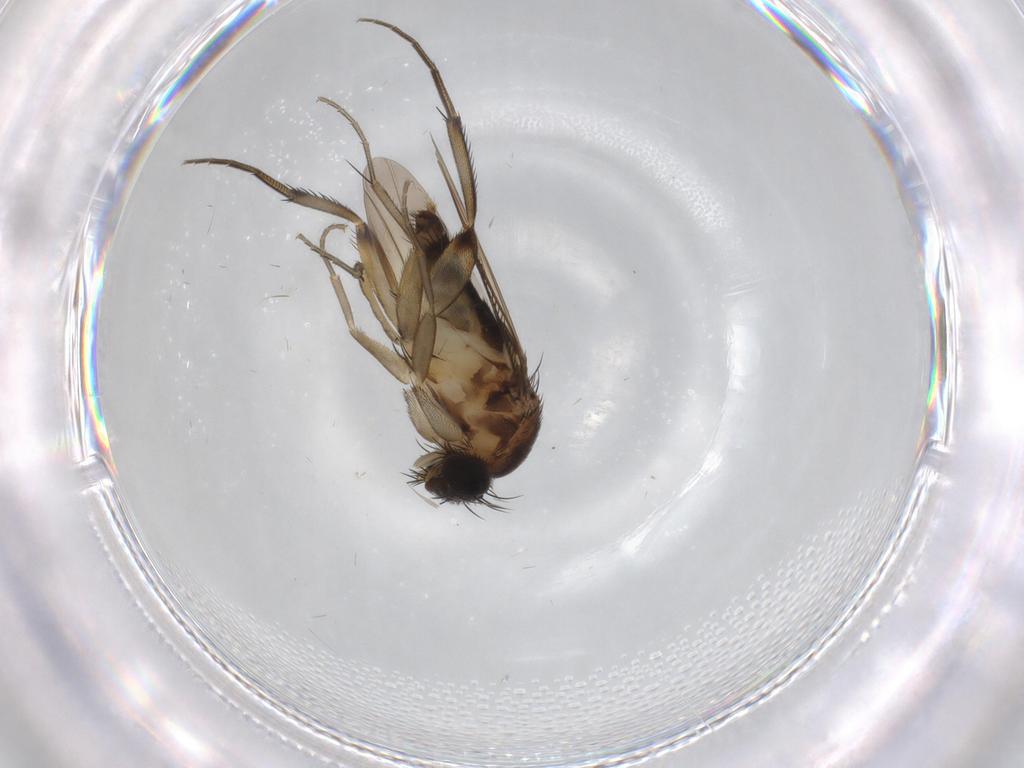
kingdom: Animalia
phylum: Arthropoda
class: Insecta
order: Diptera
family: Phoridae
